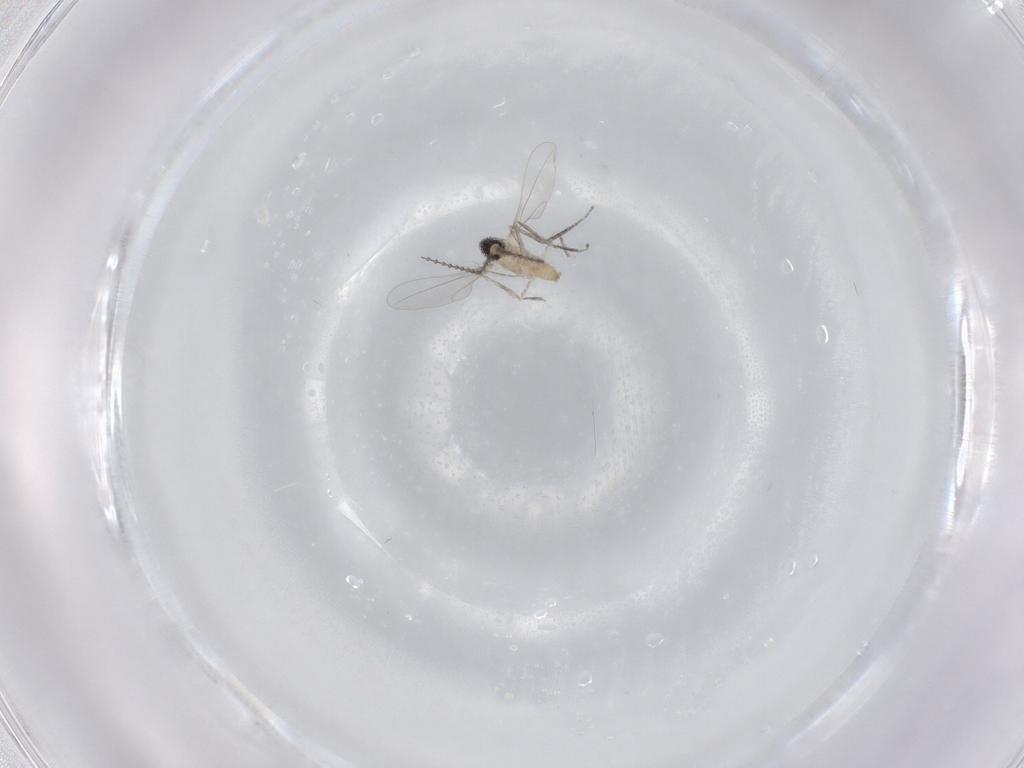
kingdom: Animalia
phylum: Arthropoda
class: Insecta
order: Diptera
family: Cecidomyiidae
